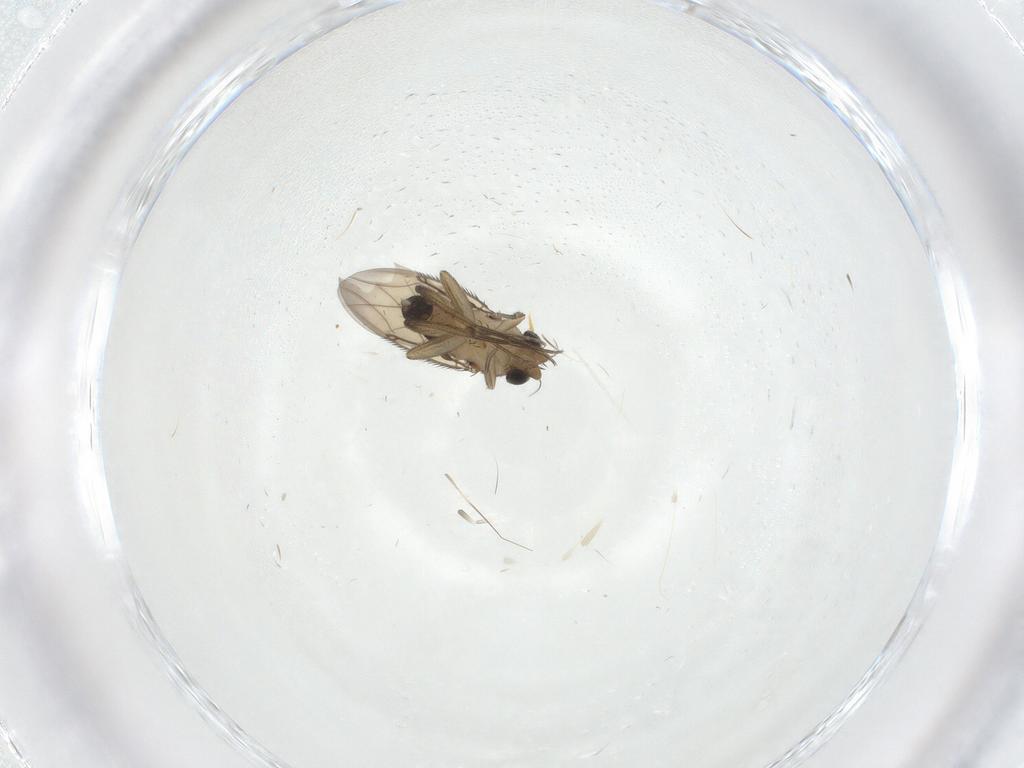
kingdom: Animalia
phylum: Arthropoda
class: Insecta
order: Diptera
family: Phoridae
